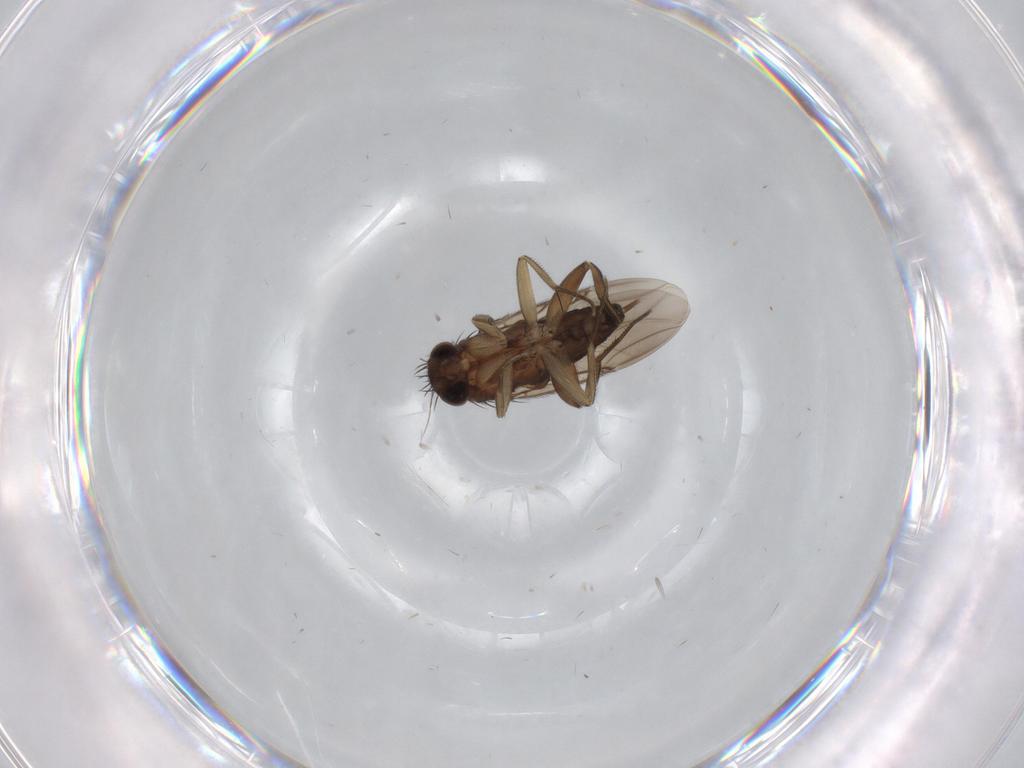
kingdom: Animalia
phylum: Arthropoda
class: Insecta
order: Diptera
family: Phoridae
